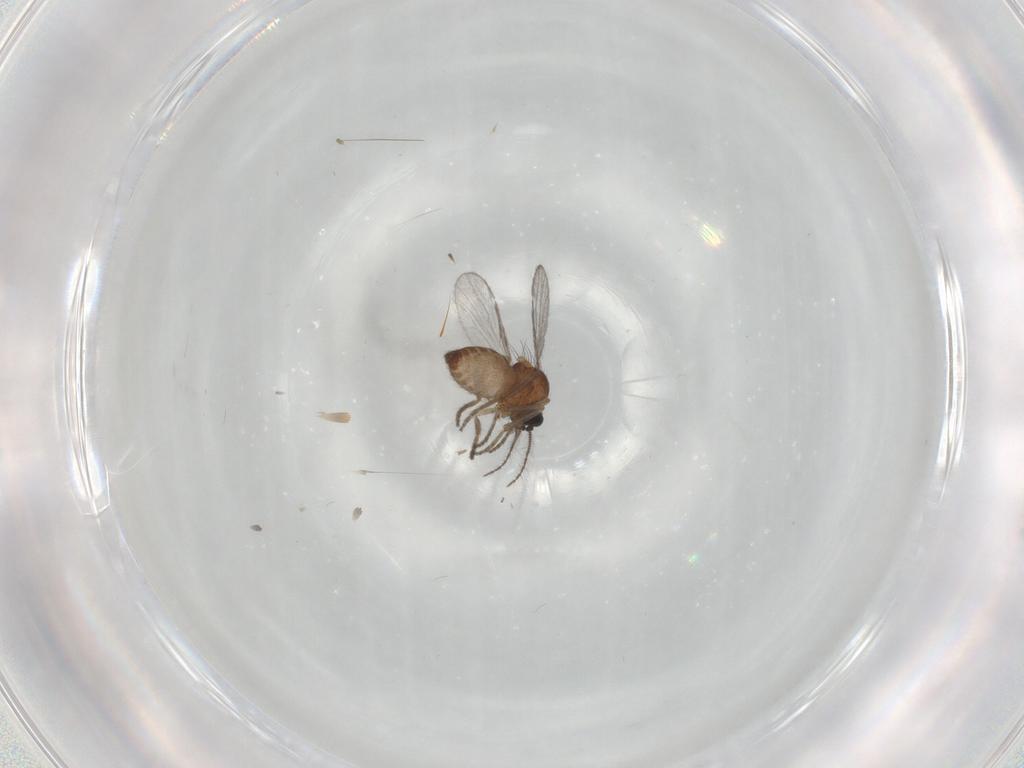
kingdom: Animalia
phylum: Arthropoda
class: Insecta
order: Diptera
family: Ceratopogonidae
